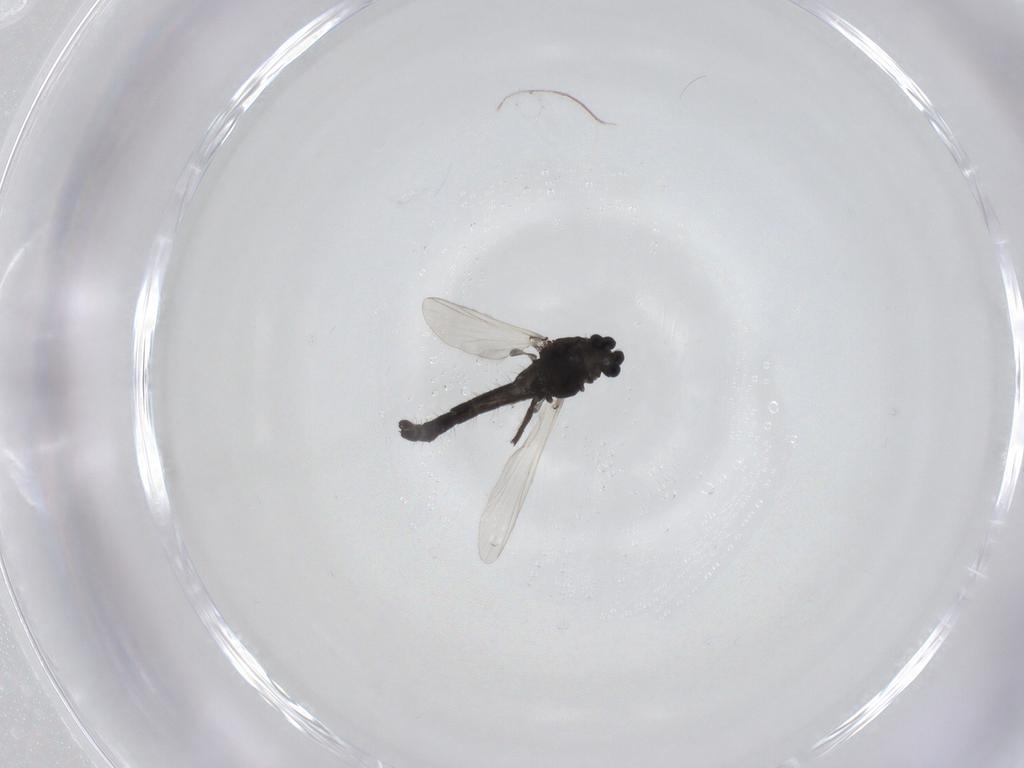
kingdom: Animalia
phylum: Arthropoda
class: Insecta
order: Diptera
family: Chironomidae
